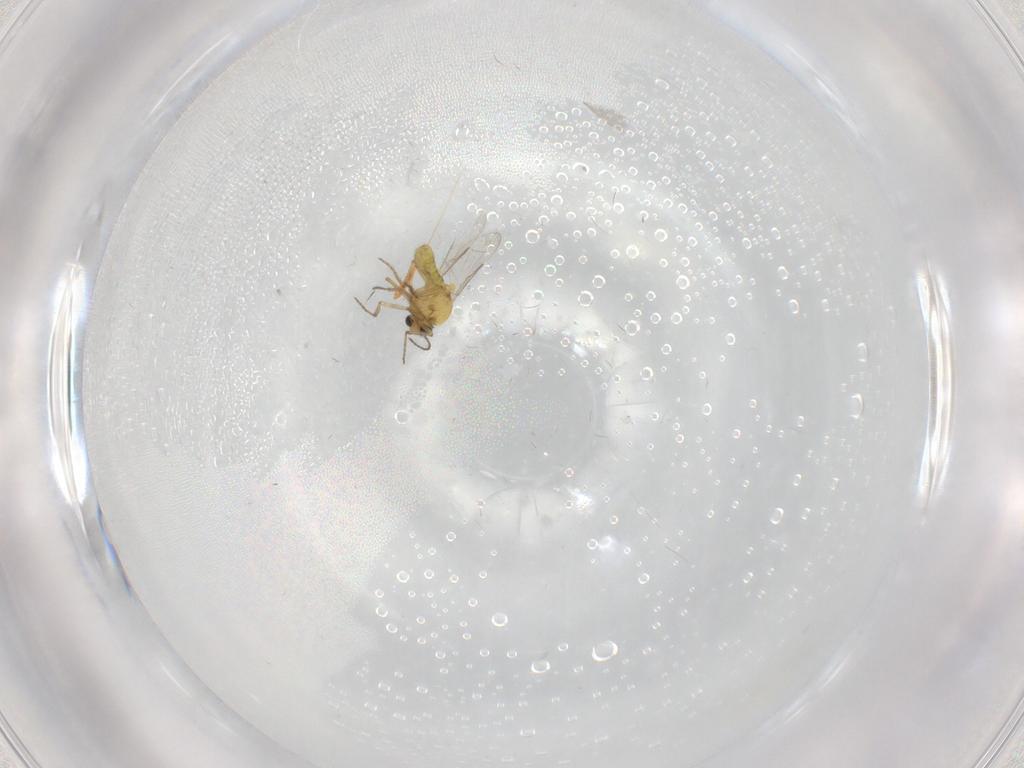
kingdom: Animalia
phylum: Arthropoda
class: Insecta
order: Diptera
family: Ceratopogonidae
